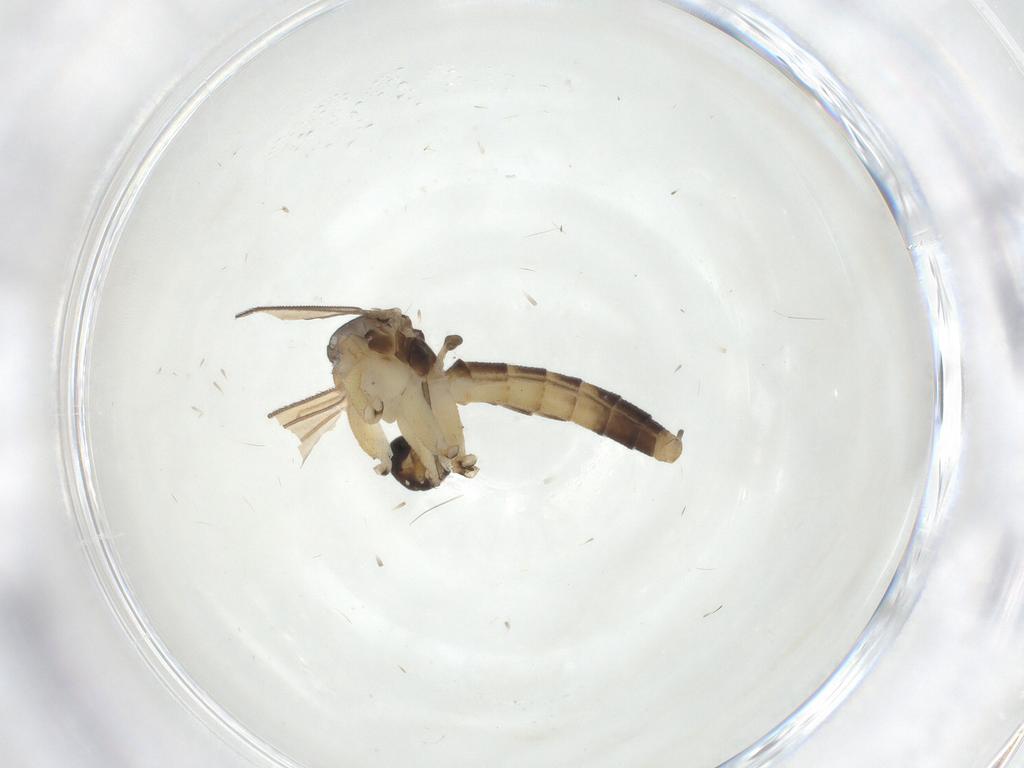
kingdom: Animalia
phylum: Arthropoda
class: Insecta
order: Diptera
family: Mycetophilidae
